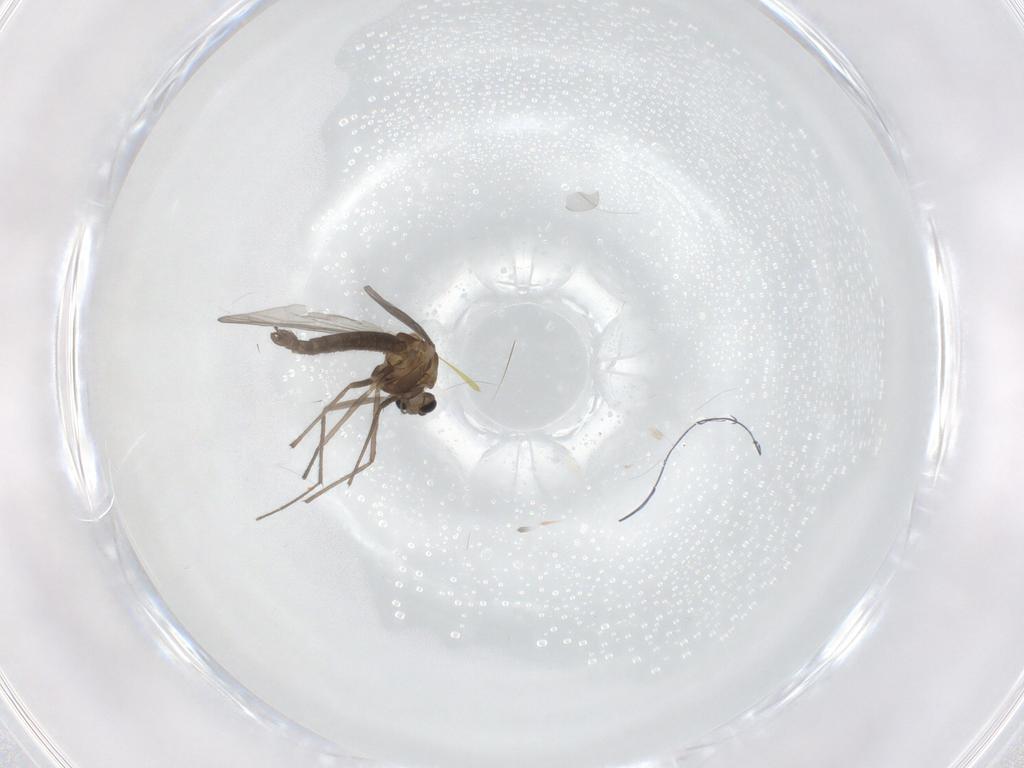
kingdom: Animalia
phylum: Arthropoda
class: Insecta
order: Diptera
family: Chironomidae
